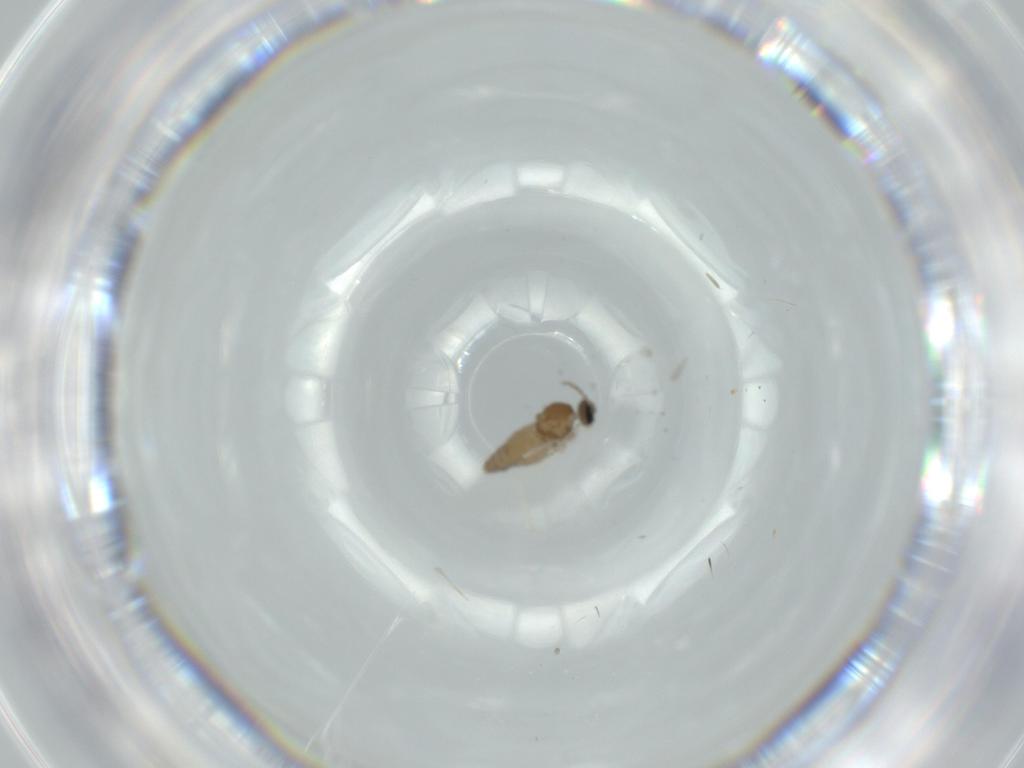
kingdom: Animalia
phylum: Arthropoda
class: Insecta
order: Diptera
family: Cecidomyiidae
